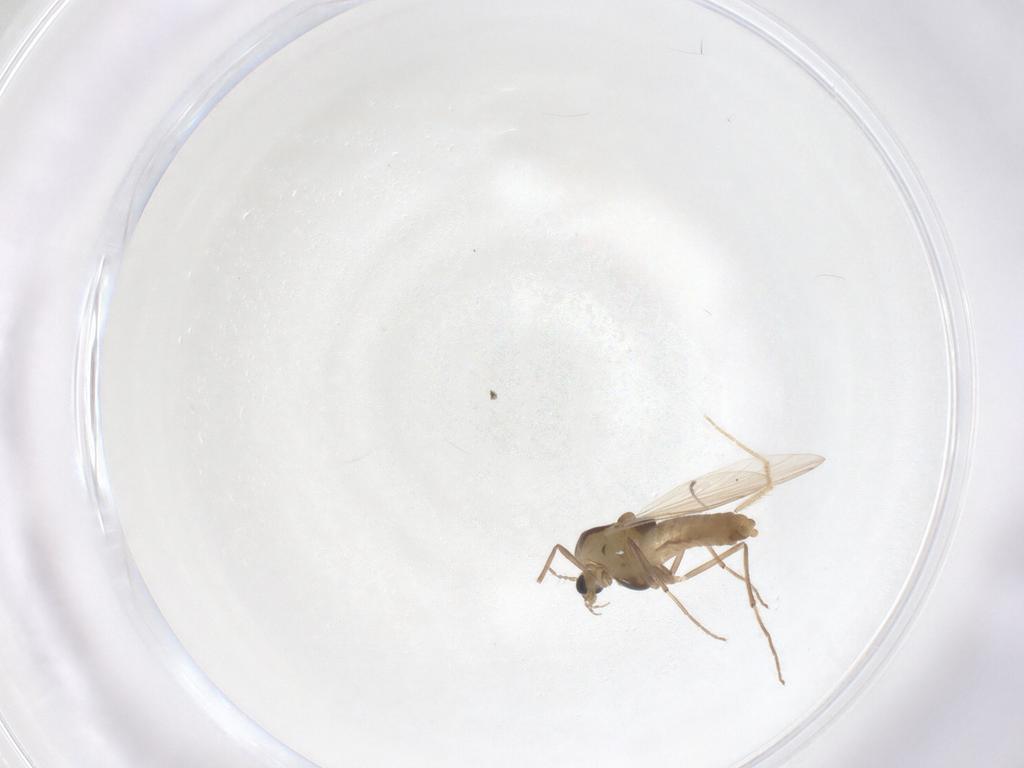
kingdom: Animalia
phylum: Arthropoda
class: Insecta
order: Diptera
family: Chironomidae
